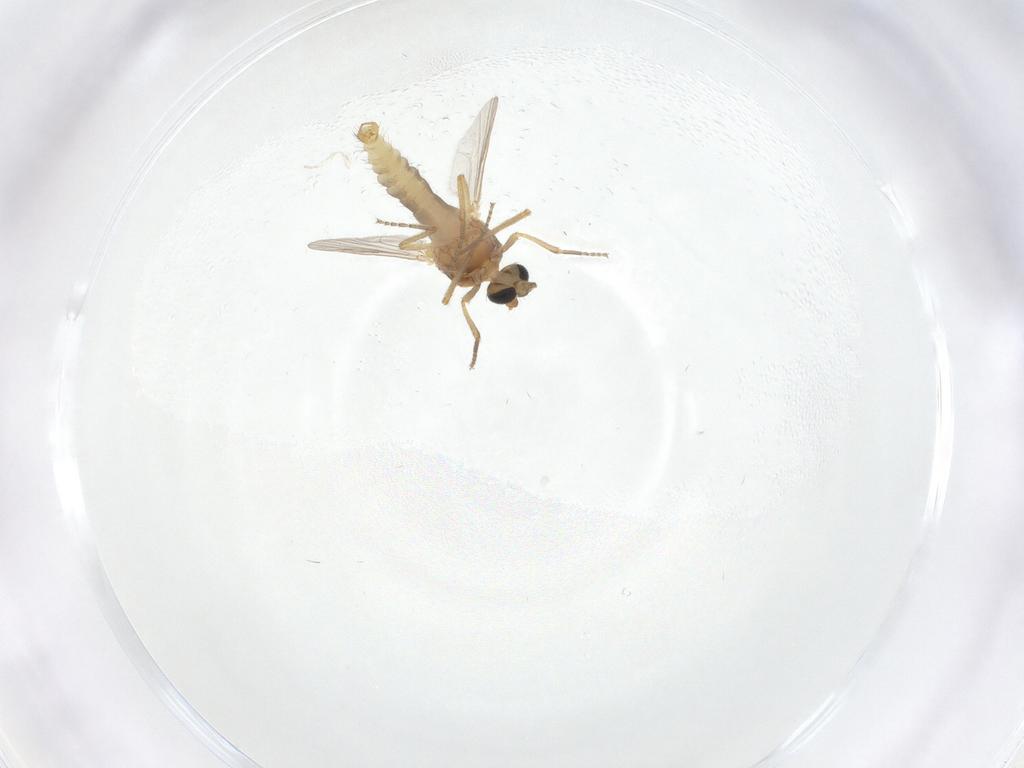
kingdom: Animalia
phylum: Arthropoda
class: Insecta
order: Diptera
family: Ceratopogonidae
